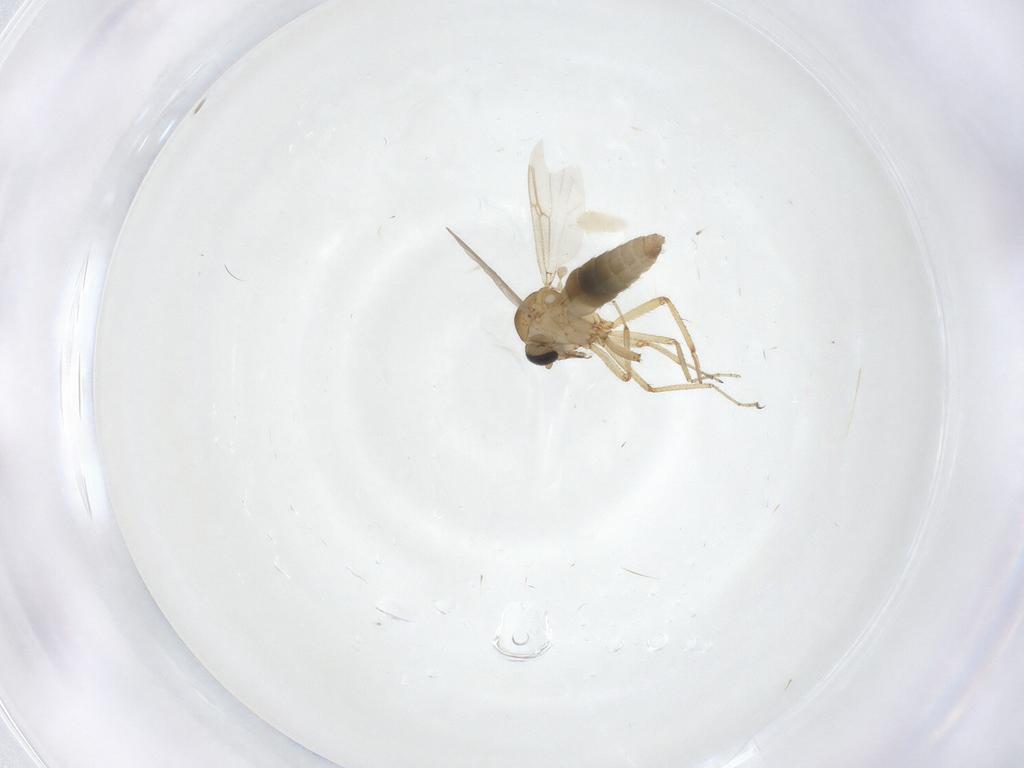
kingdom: Animalia
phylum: Arthropoda
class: Insecta
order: Diptera
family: Ceratopogonidae
